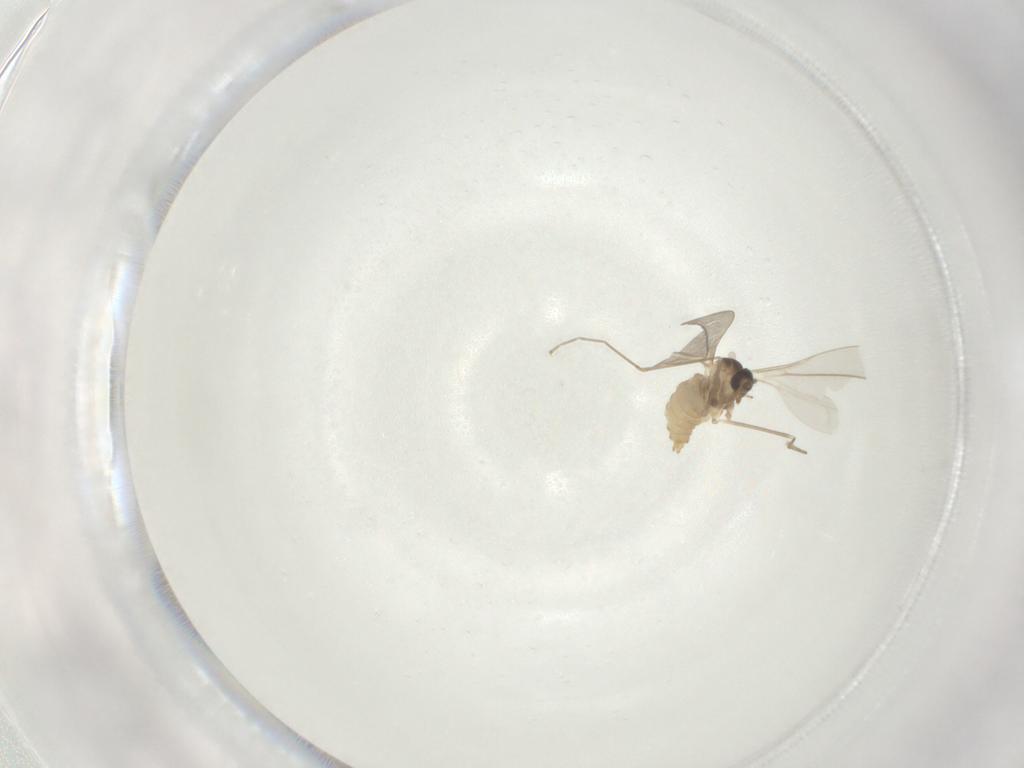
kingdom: Animalia
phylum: Arthropoda
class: Insecta
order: Diptera
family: Cecidomyiidae
